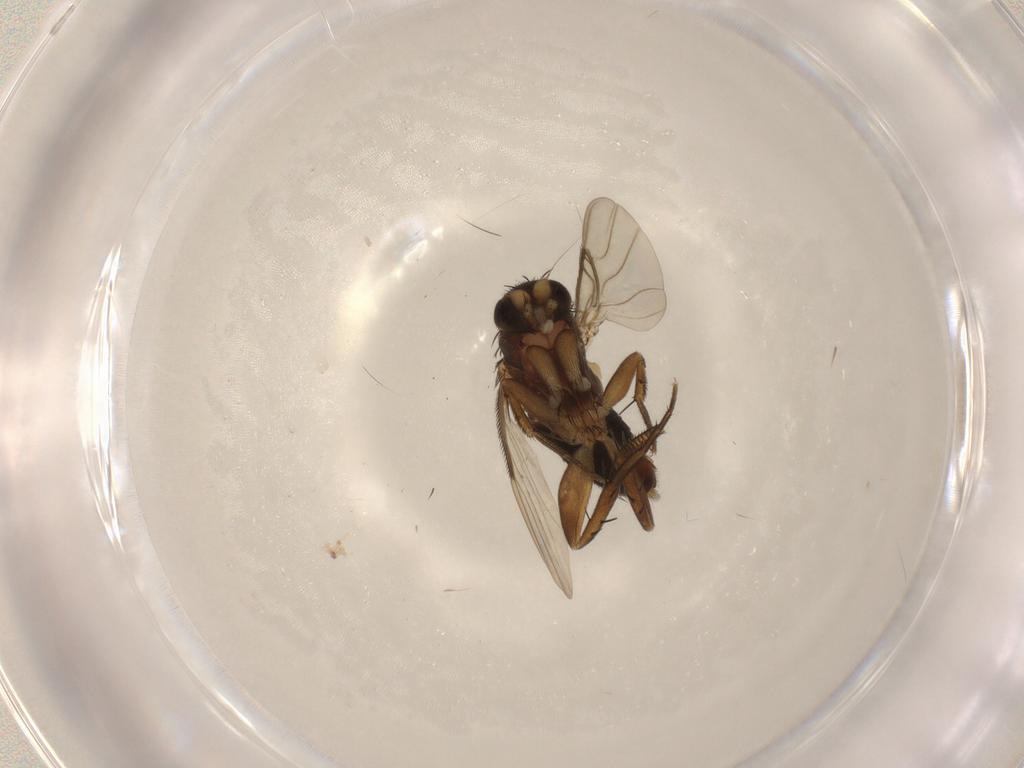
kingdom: Animalia
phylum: Arthropoda
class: Insecta
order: Diptera
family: Phoridae
